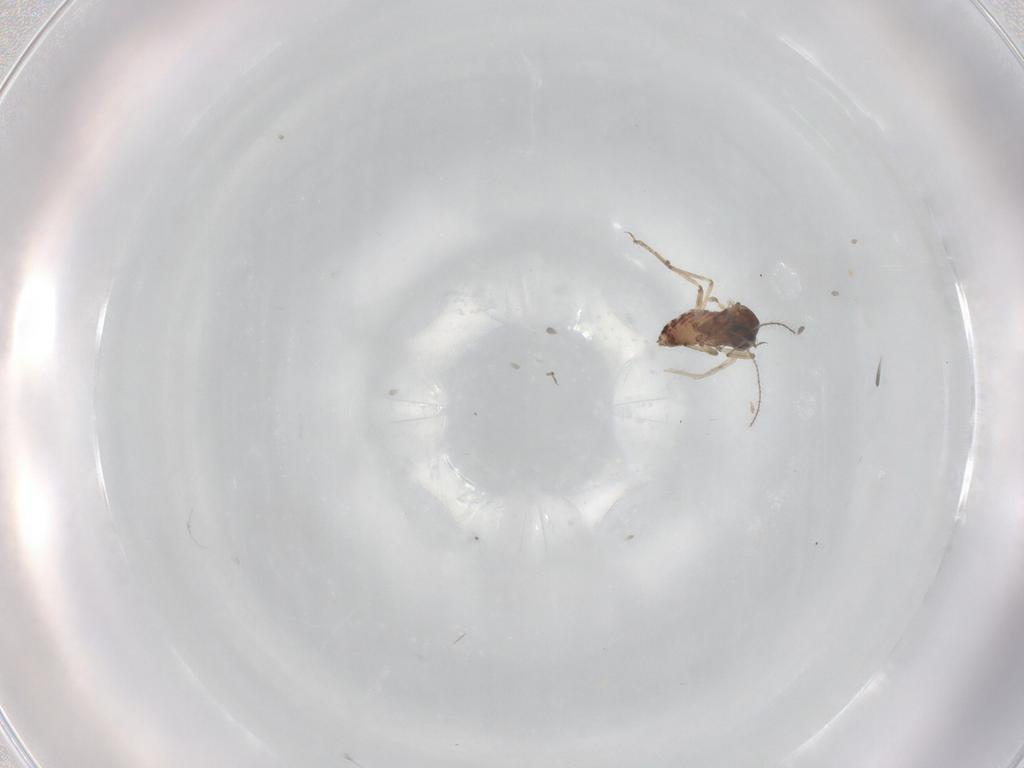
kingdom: Animalia
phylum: Arthropoda
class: Insecta
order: Diptera
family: Ceratopogonidae
